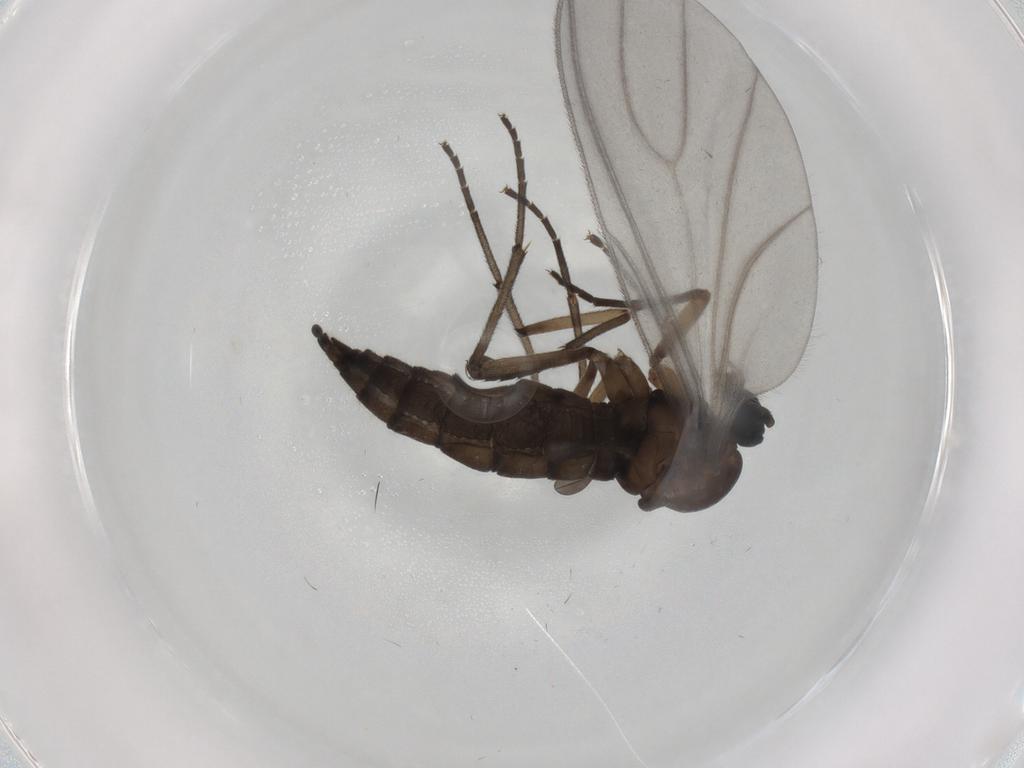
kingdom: Animalia
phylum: Arthropoda
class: Insecta
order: Diptera
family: Sciaridae
